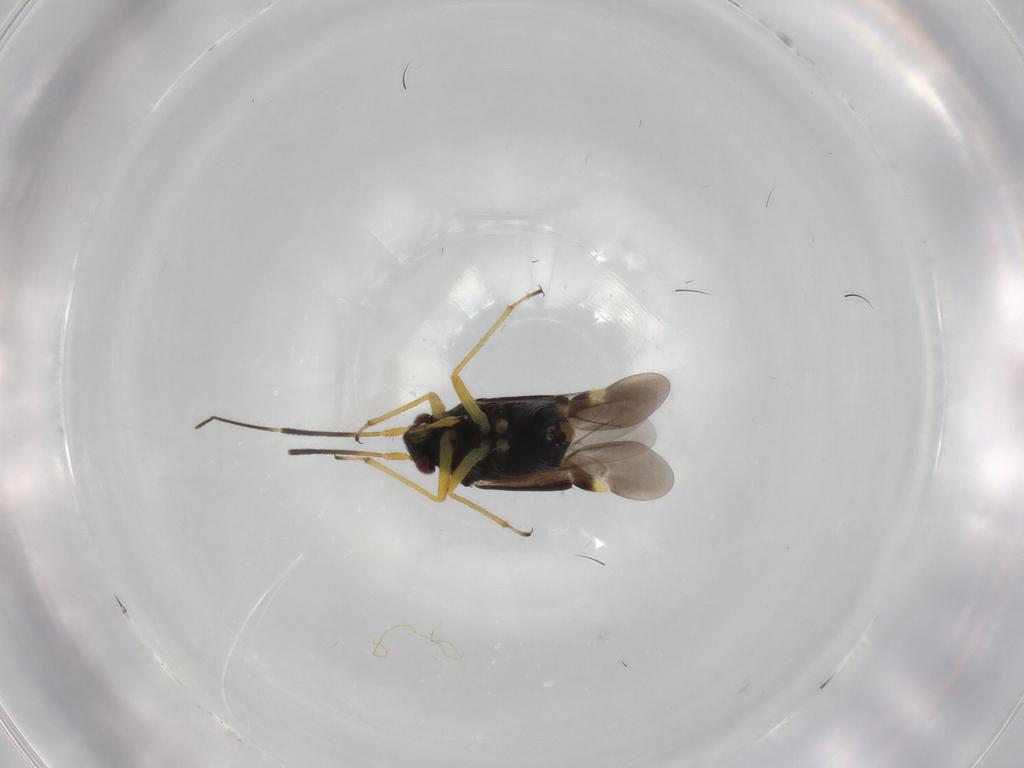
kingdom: Animalia
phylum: Arthropoda
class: Insecta
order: Hemiptera
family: Miridae
